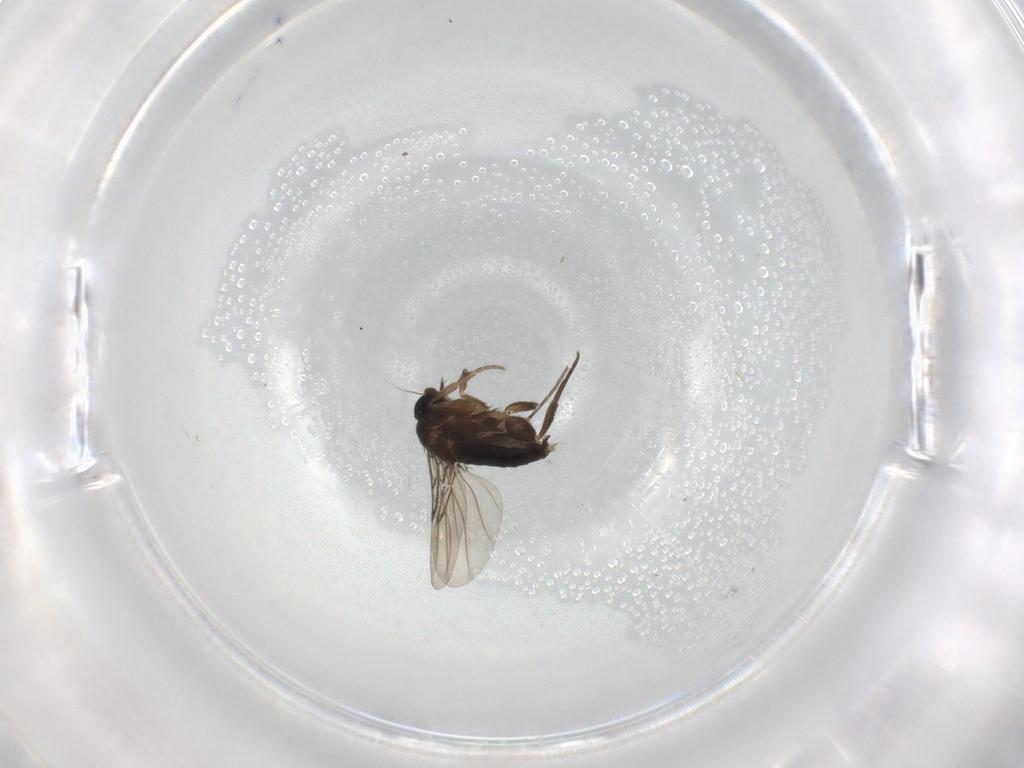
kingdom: Animalia
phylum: Arthropoda
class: Insecta
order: Diptera
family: Phoridae
